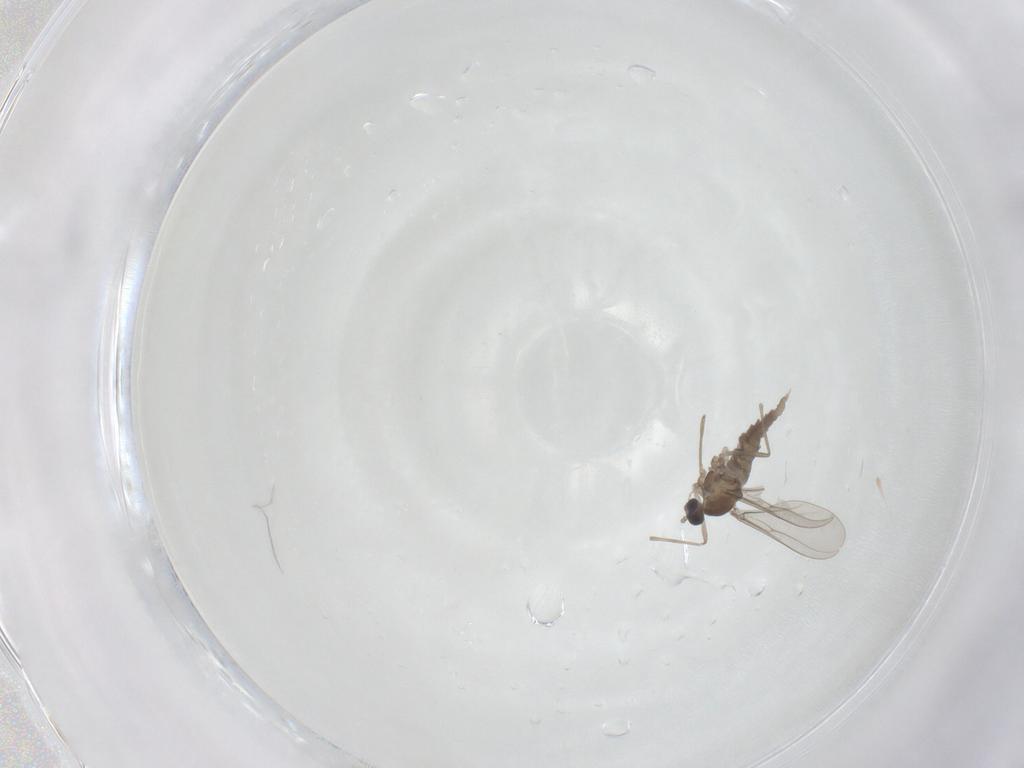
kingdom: Animalia
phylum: Arthropoda
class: Insecta
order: Diptera
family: Cecidomyiidae
